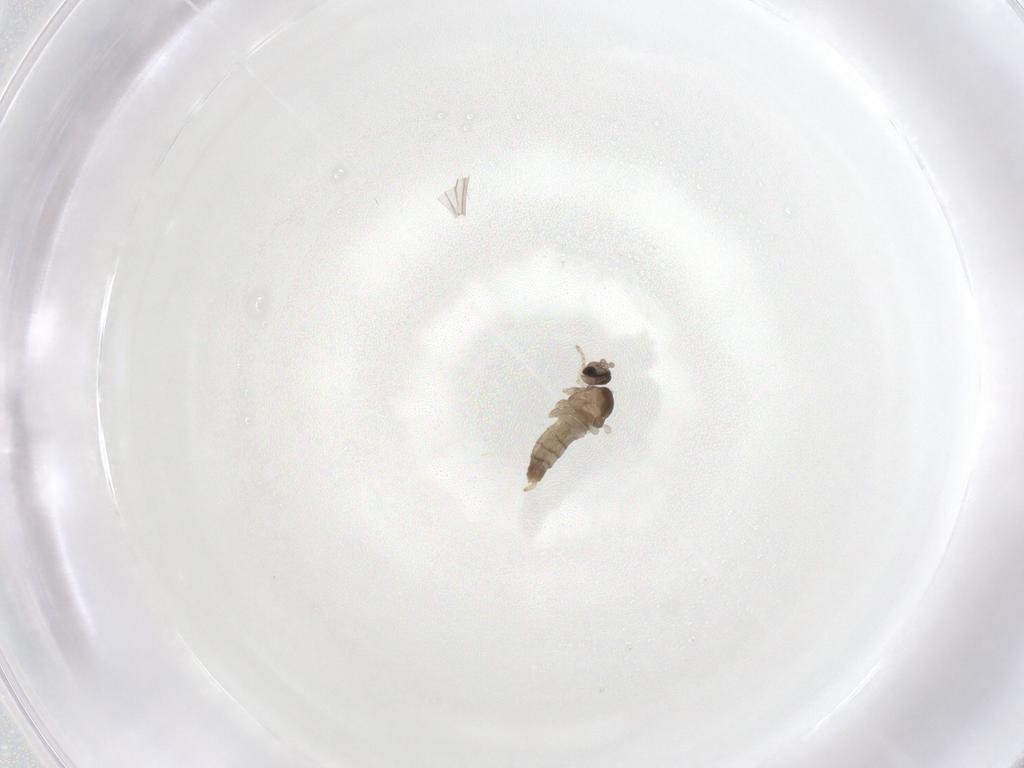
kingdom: Animalia
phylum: Arthropoda
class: Insecta
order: Diptera
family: Cecidomyiidae
